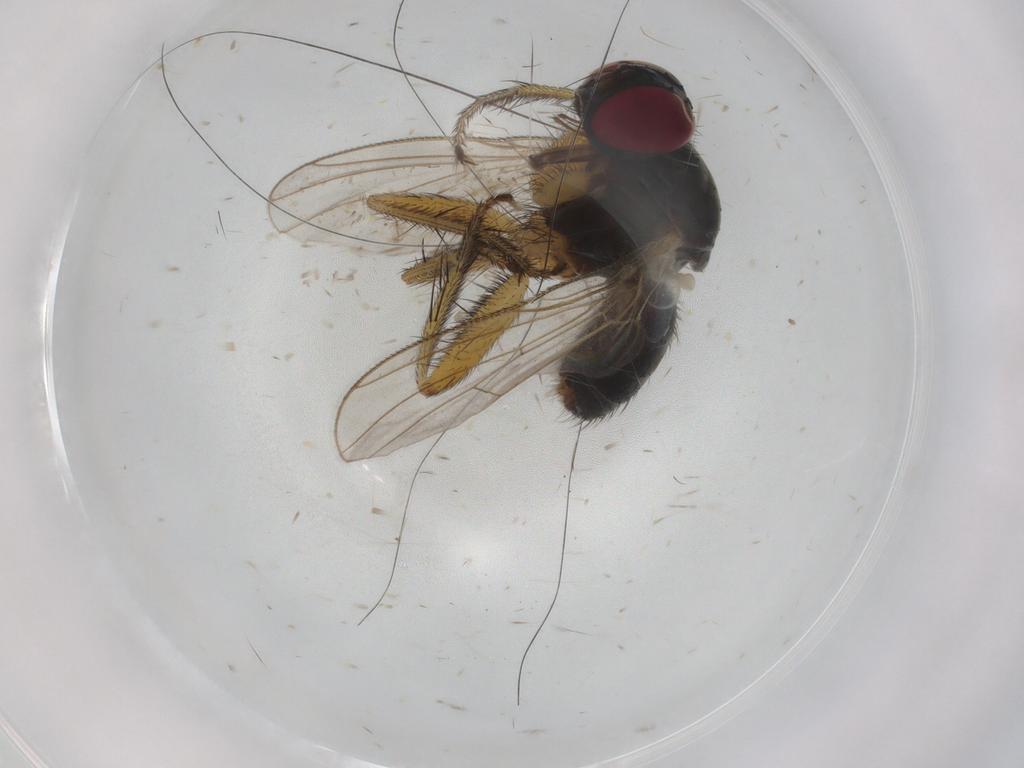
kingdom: Animalia
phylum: Arthropoda
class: Insecta
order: Diptera
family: Muscidae
